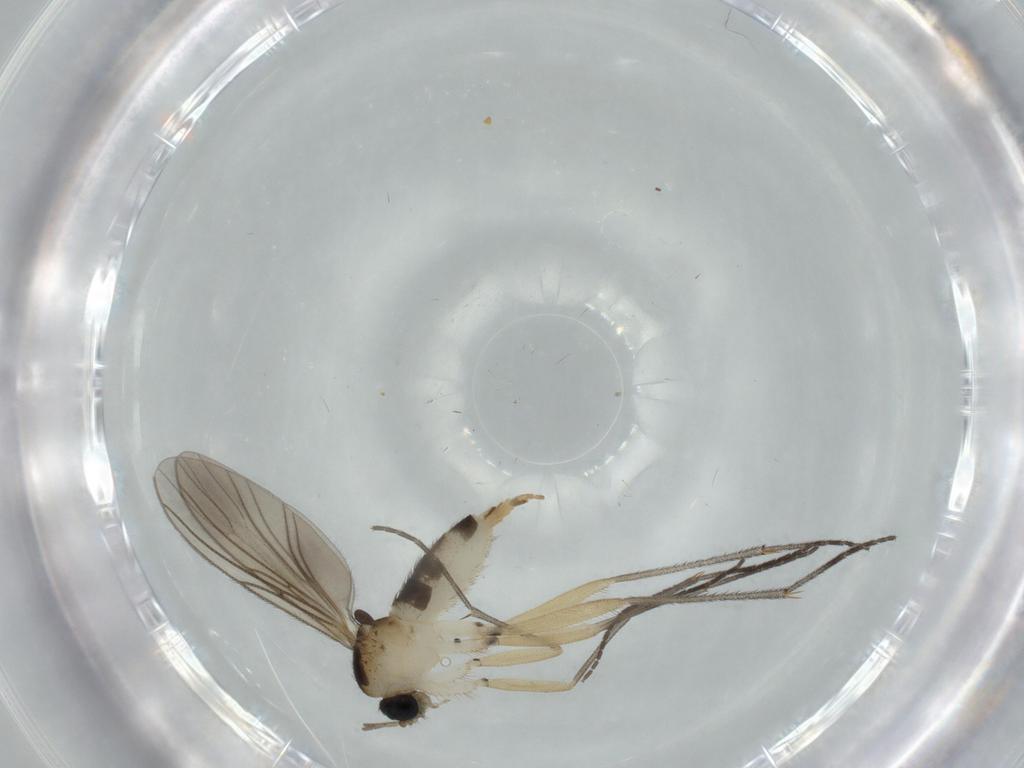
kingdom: Animalia
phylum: Arthropoda
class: Insecta
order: Diptera
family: Sciaridae
